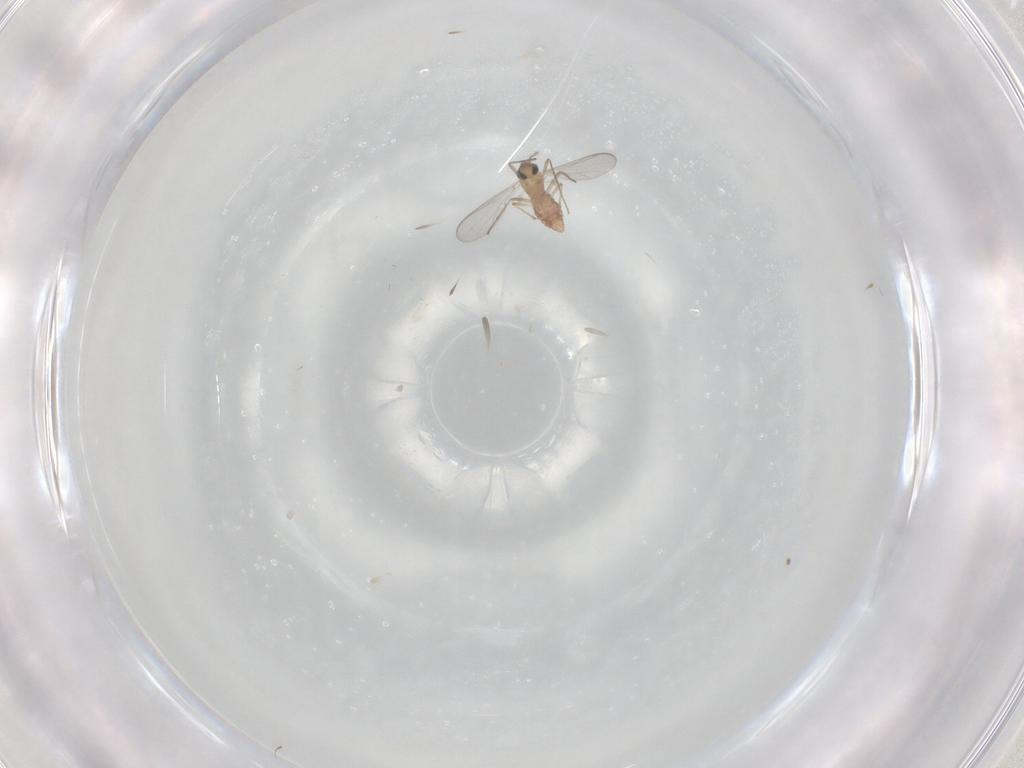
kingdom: Animalia
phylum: Arthropoda
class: Insecta
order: Diptera
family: Chironomidae
